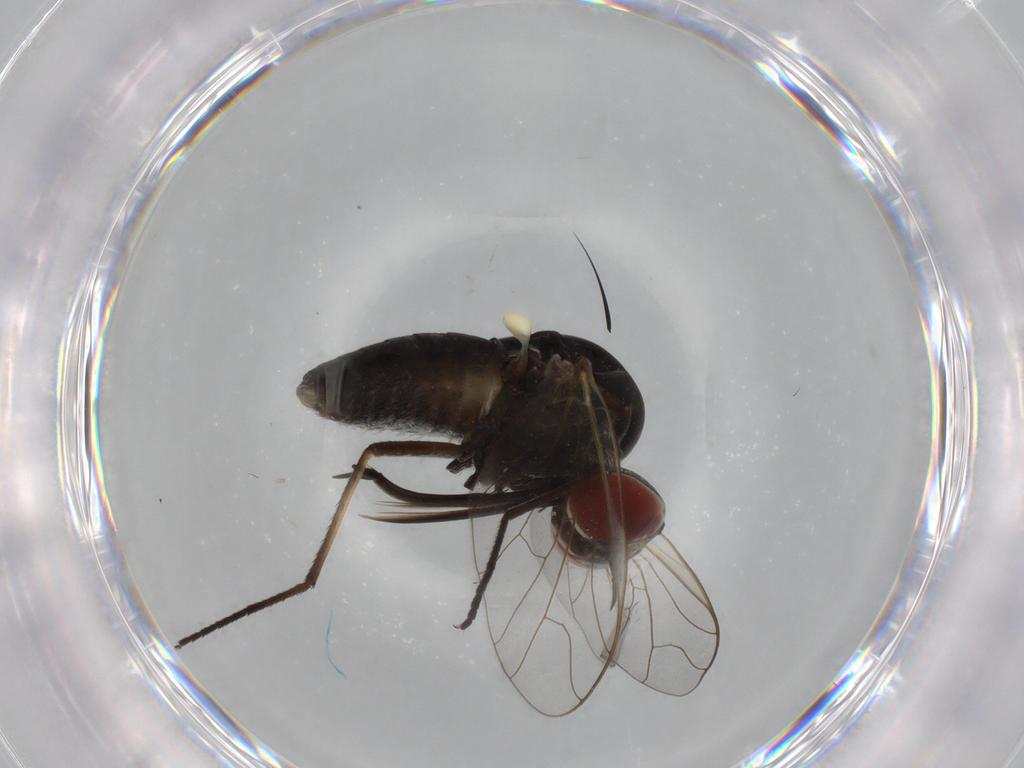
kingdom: Animalia
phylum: Arthropoda
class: Insecta
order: Diptera
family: Bombyliidae
